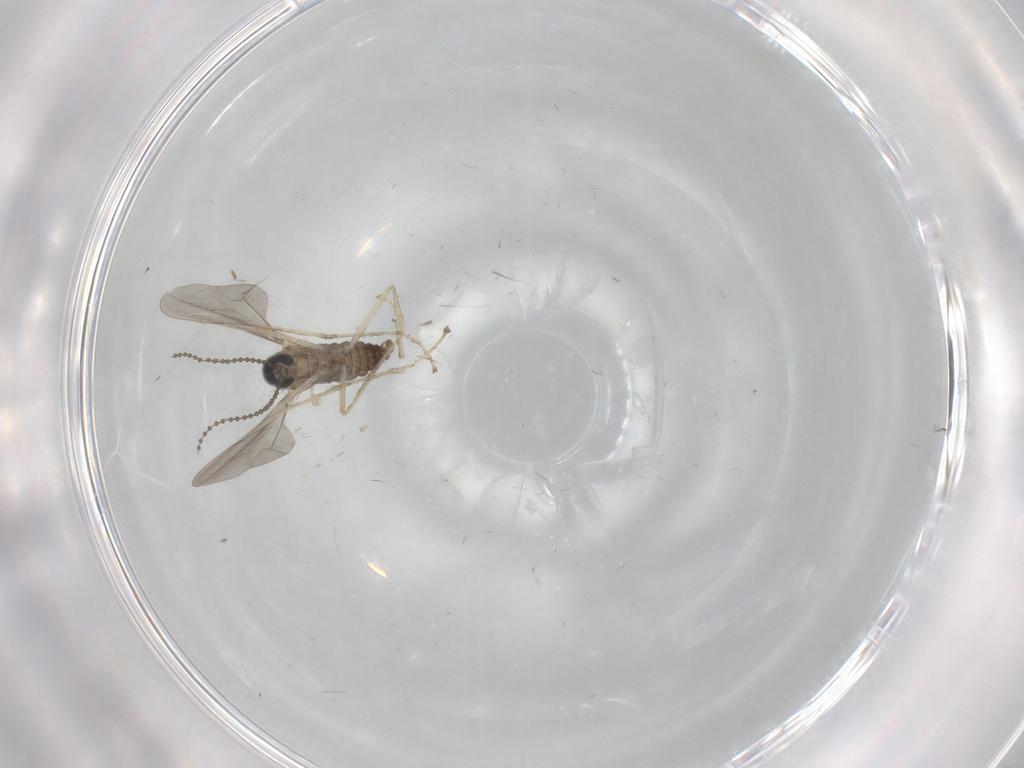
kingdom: Animalia
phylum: Arthropoda
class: Insecta
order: Diptera
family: Cecidomyiidae
